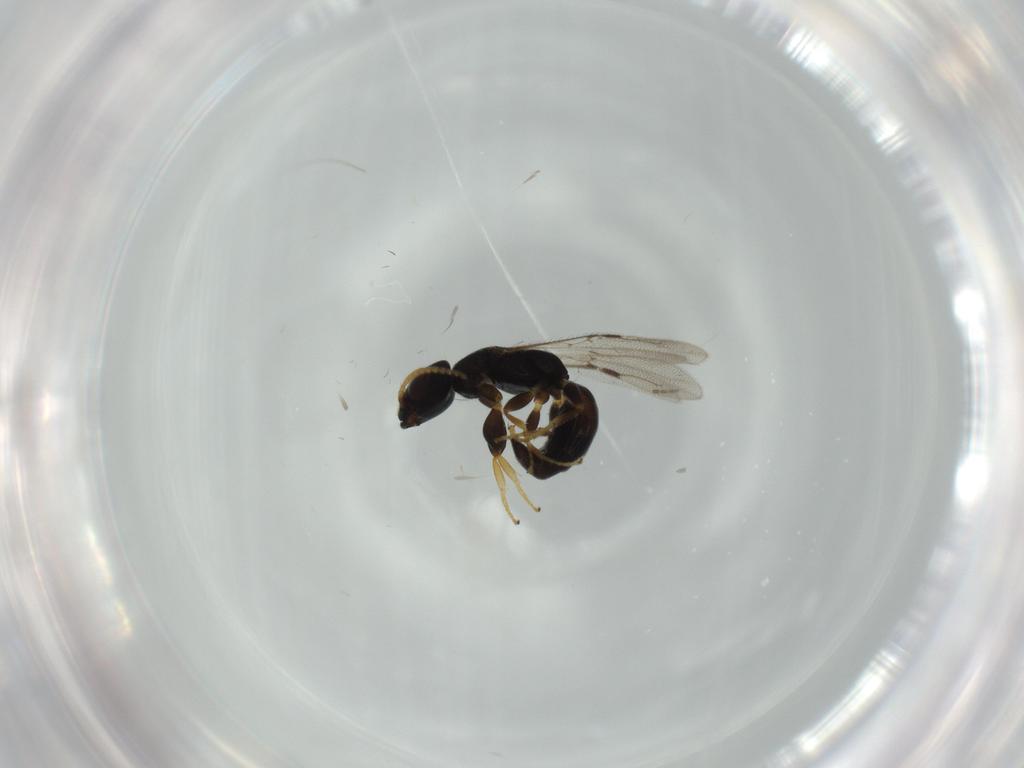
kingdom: Animalia
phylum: Arthropoda
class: Insecta
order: Hymenoptera
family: Bethylidae
